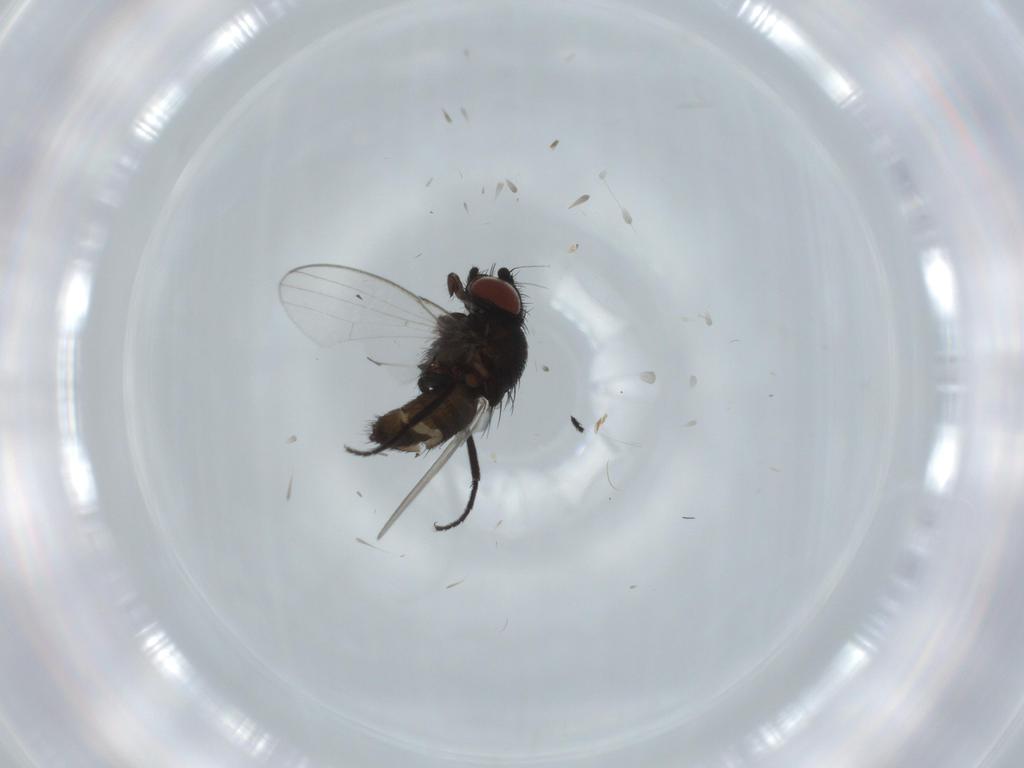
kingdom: Animalia
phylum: Arthropoda
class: Insecta
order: Diptera
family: Milichiidae
